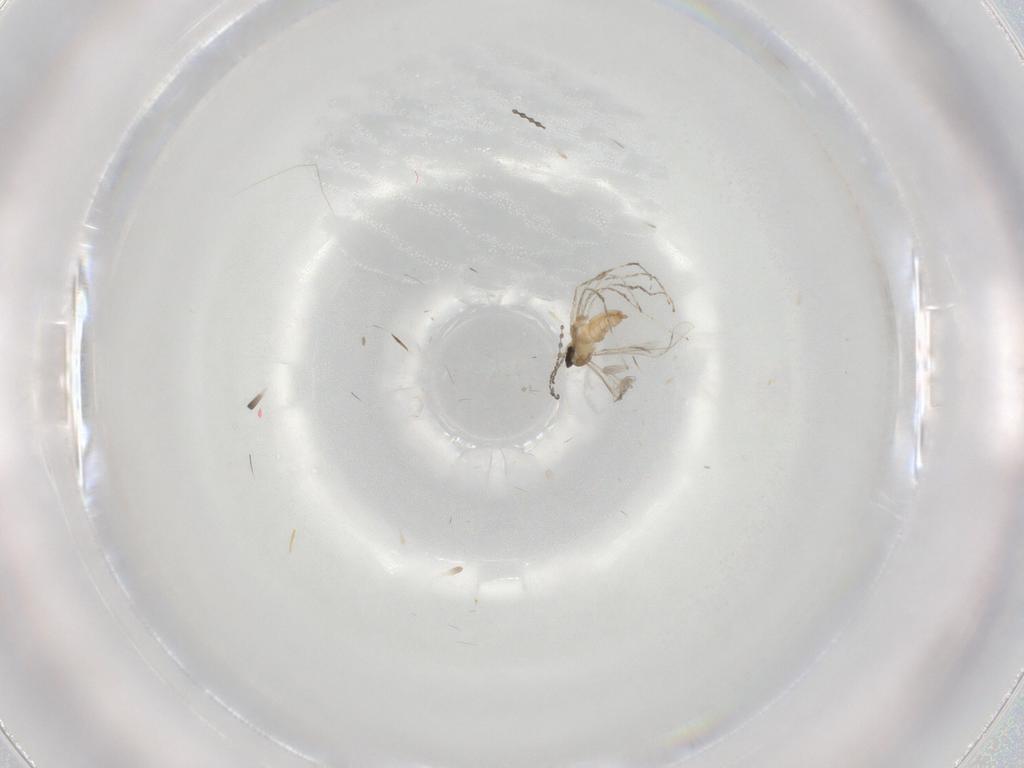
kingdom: Animalia
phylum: Arthropoda
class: Insecta
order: Diptera
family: Cecidomyiidae
